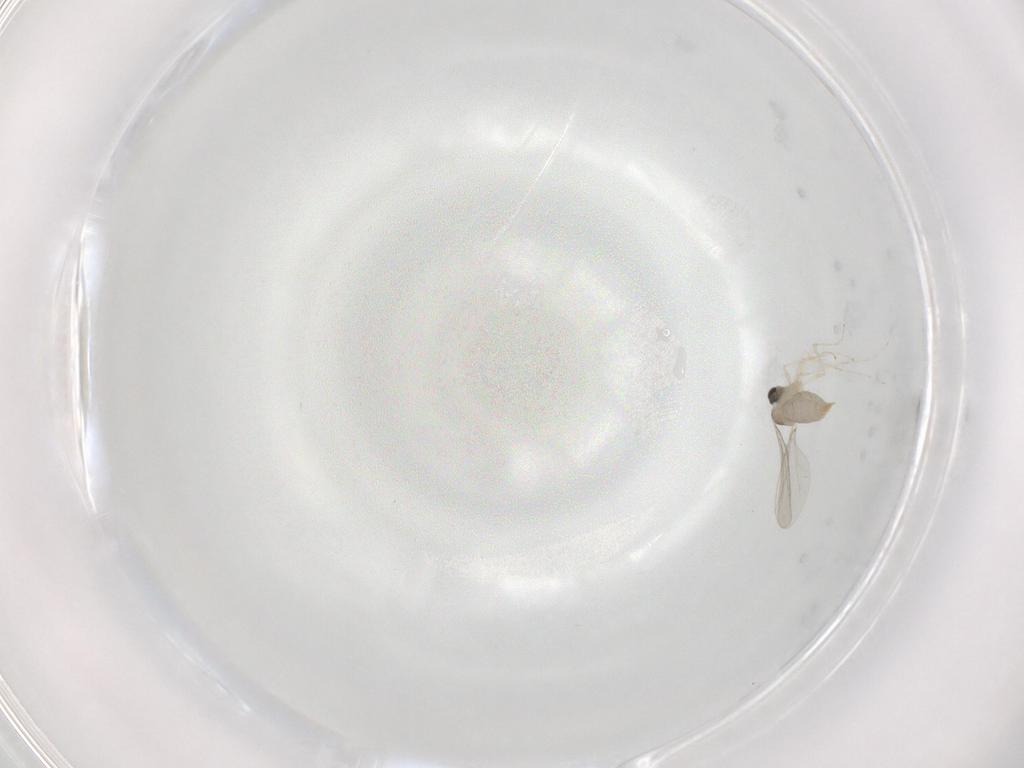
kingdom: Animalia
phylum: Arthropoda
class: Insecta
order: Diptera
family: Cecidomyiidae
